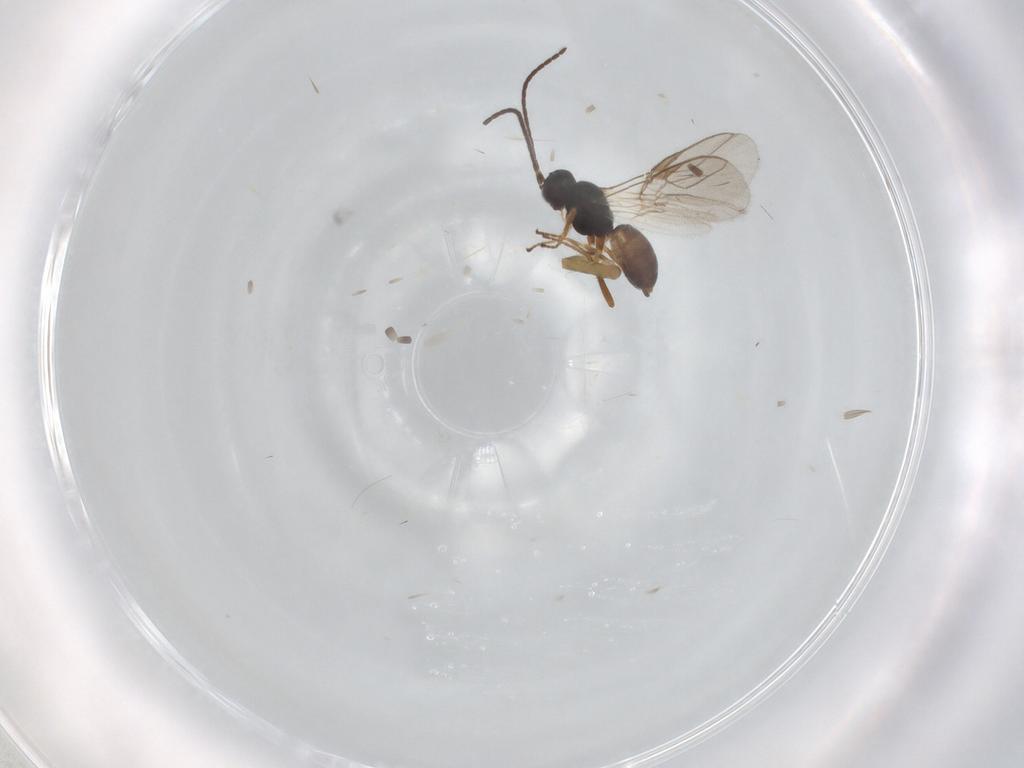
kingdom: Animalia
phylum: Arthropoda
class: Insecta
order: Hymenoptera
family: Braconidae
